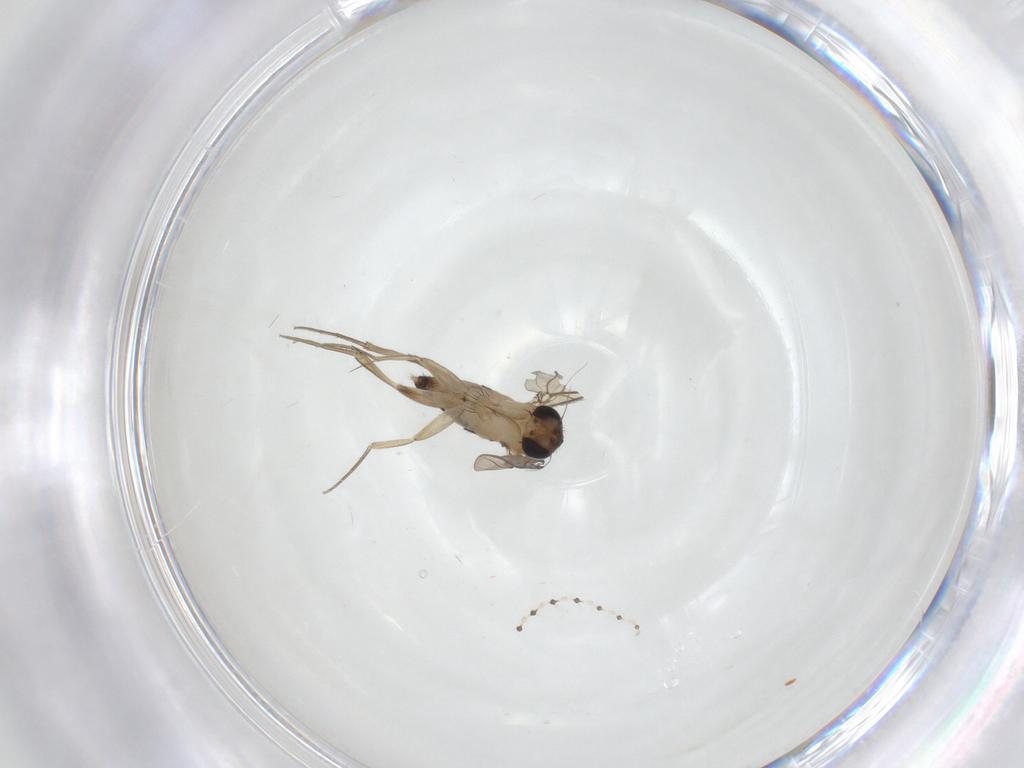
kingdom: Animalia
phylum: Arthropoda
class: Insecta
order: Diptera
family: Phoridae
